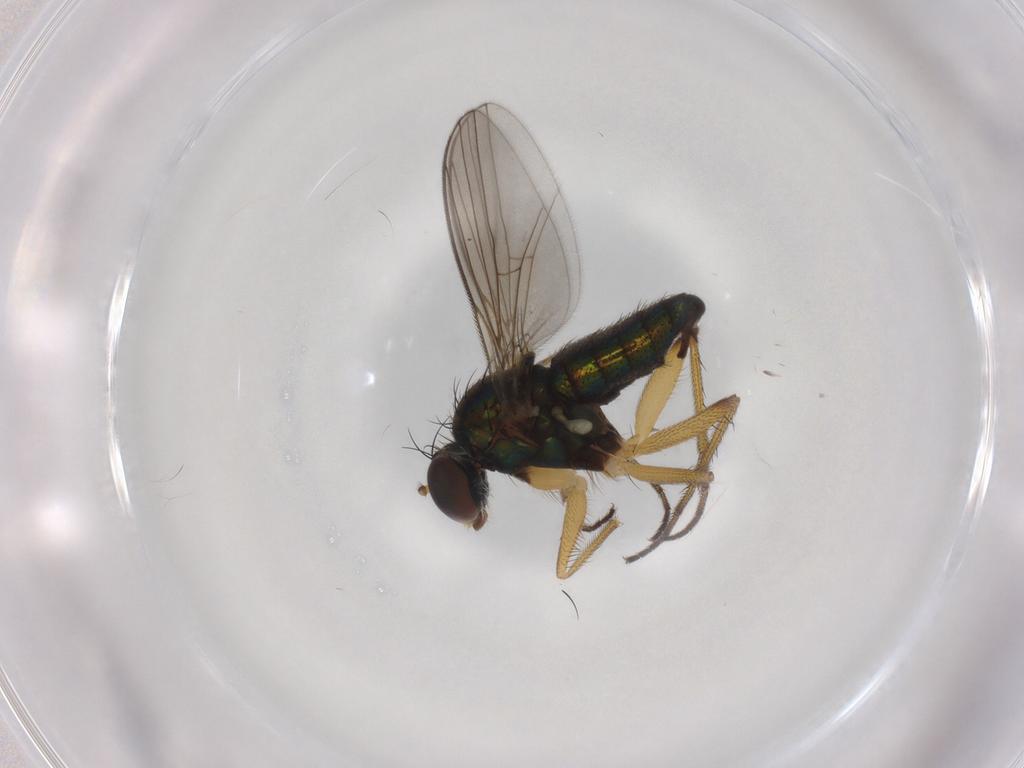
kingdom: Animalia
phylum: Arthropoda
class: Insecta
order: Diptera
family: Dolichopodidae
